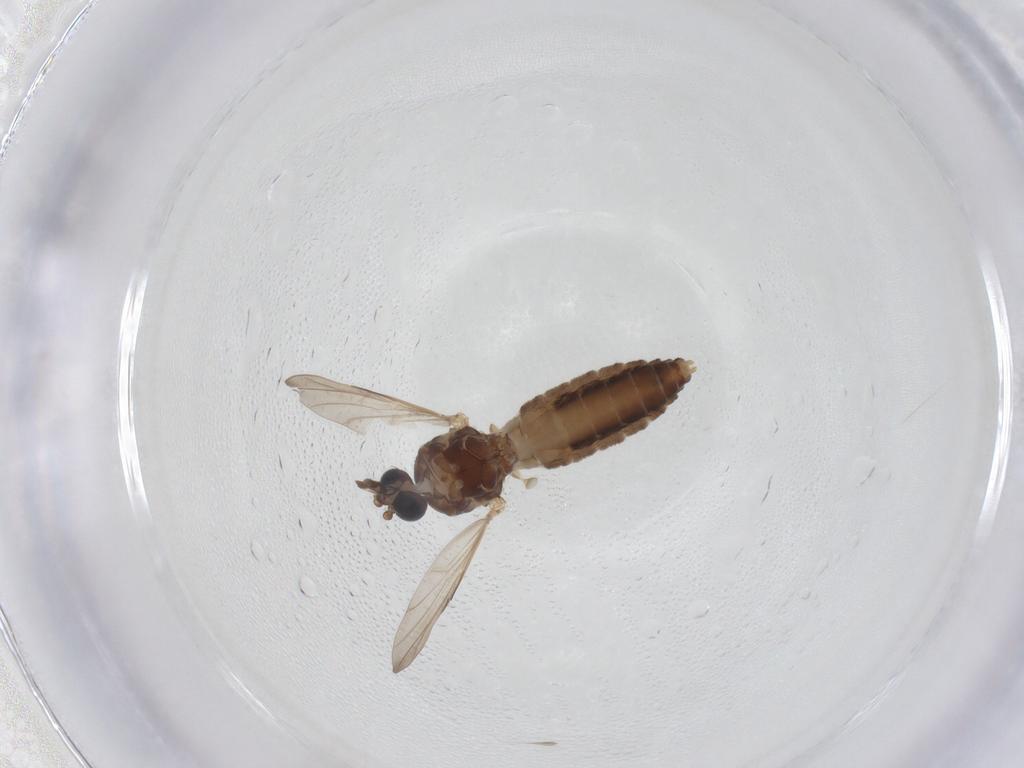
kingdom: Animalia
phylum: Arthropoda
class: Insecta
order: Diptera
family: Ceratopogonidae
